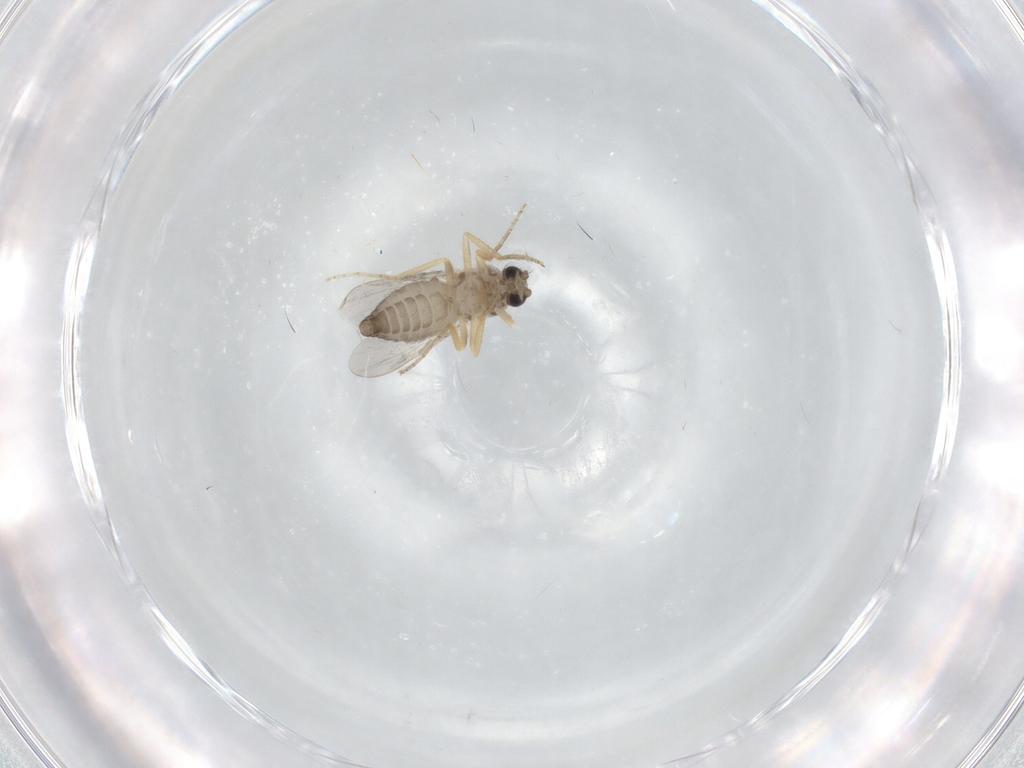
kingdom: Animalia
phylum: Arthropoda
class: Insecta
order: Diptera
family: Ceratopogonidae
